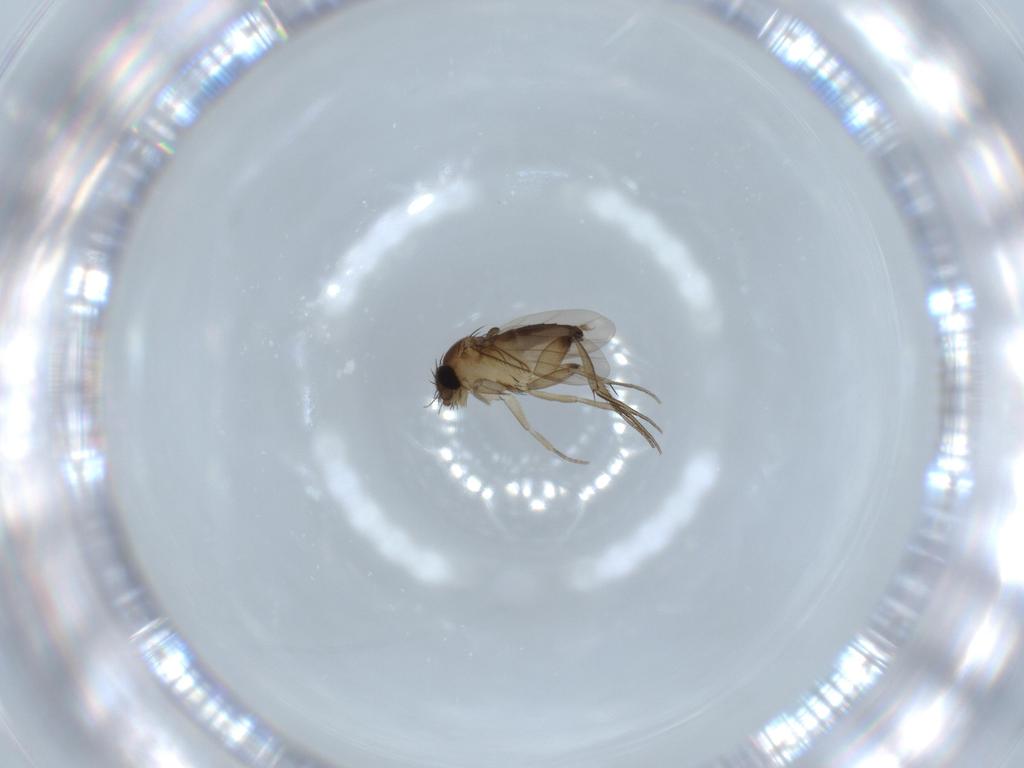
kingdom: Animalia
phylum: Arthropoda
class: Insecta
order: Diptera
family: Phoridae
